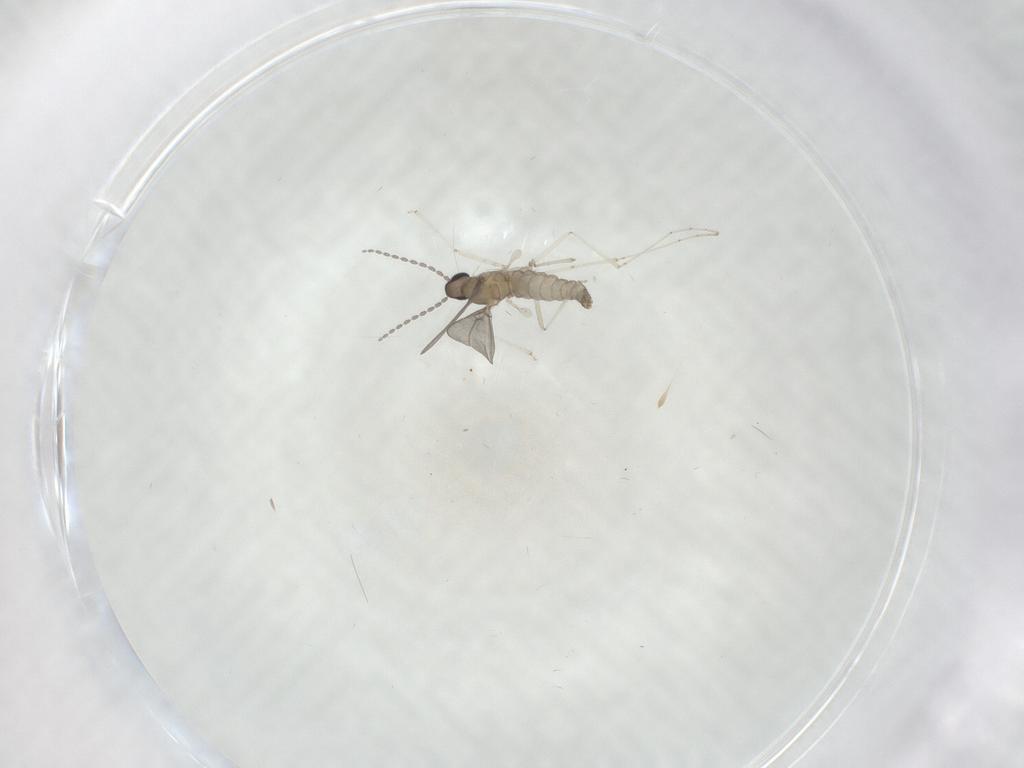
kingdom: Animalia
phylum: Arthropoda
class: Insecta
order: Diptera
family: Cecidomyiidae
